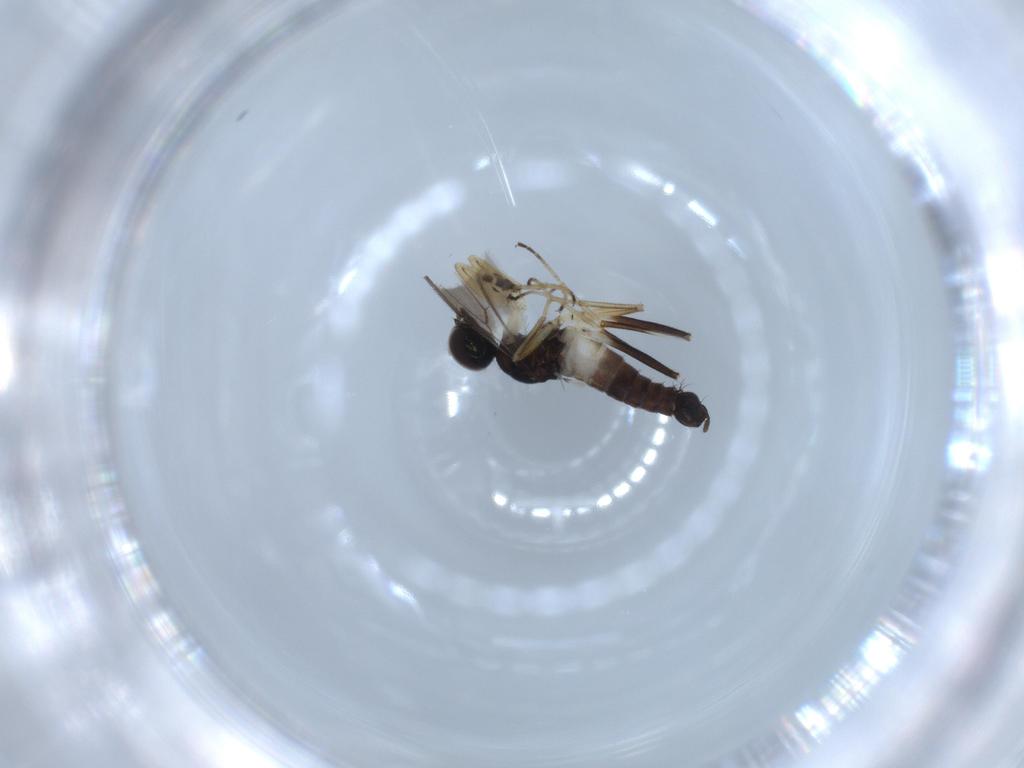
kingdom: Animalia
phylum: Arthropoda
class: Insecta
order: Diptera
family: Hybotidae
